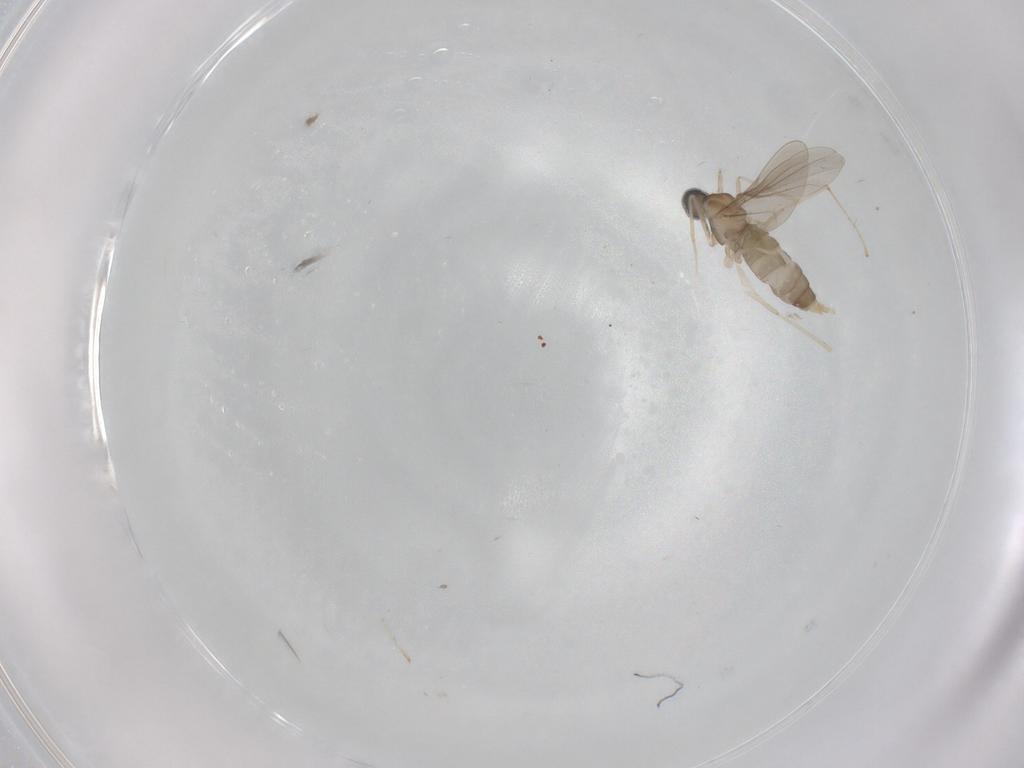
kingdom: Animalia
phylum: Arthropoda
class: Insecta
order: Diptera
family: Cecidomyiidae
